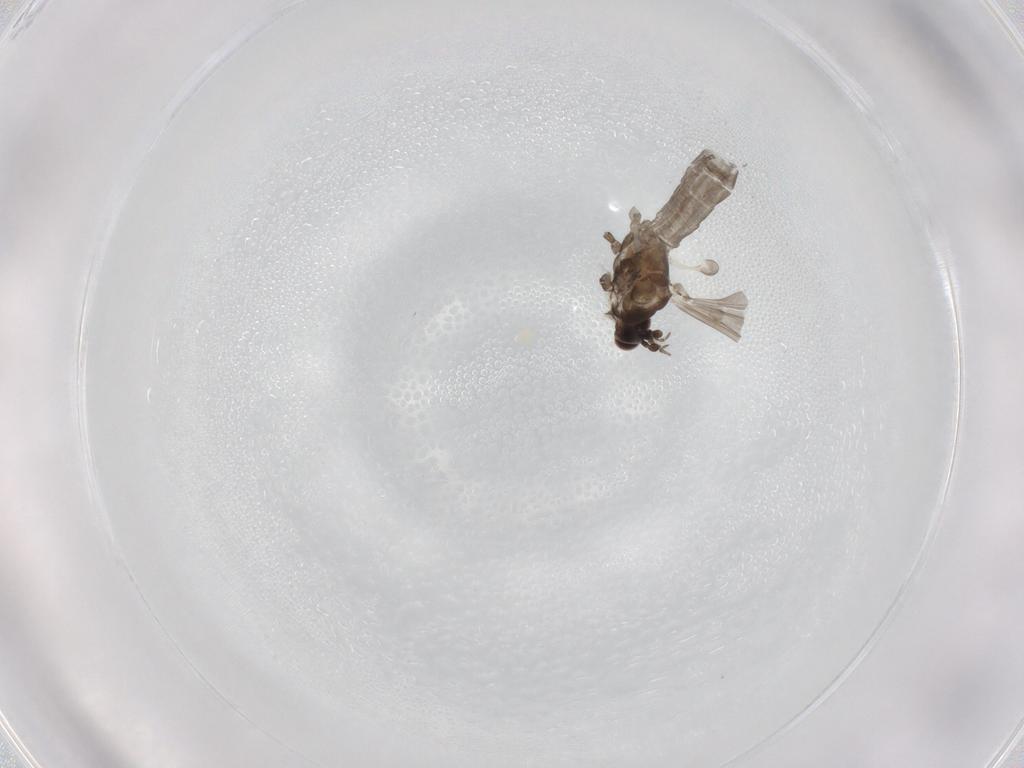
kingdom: Animalia
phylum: Arthropoda
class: Insecta
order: Diptera
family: Limoniidae
